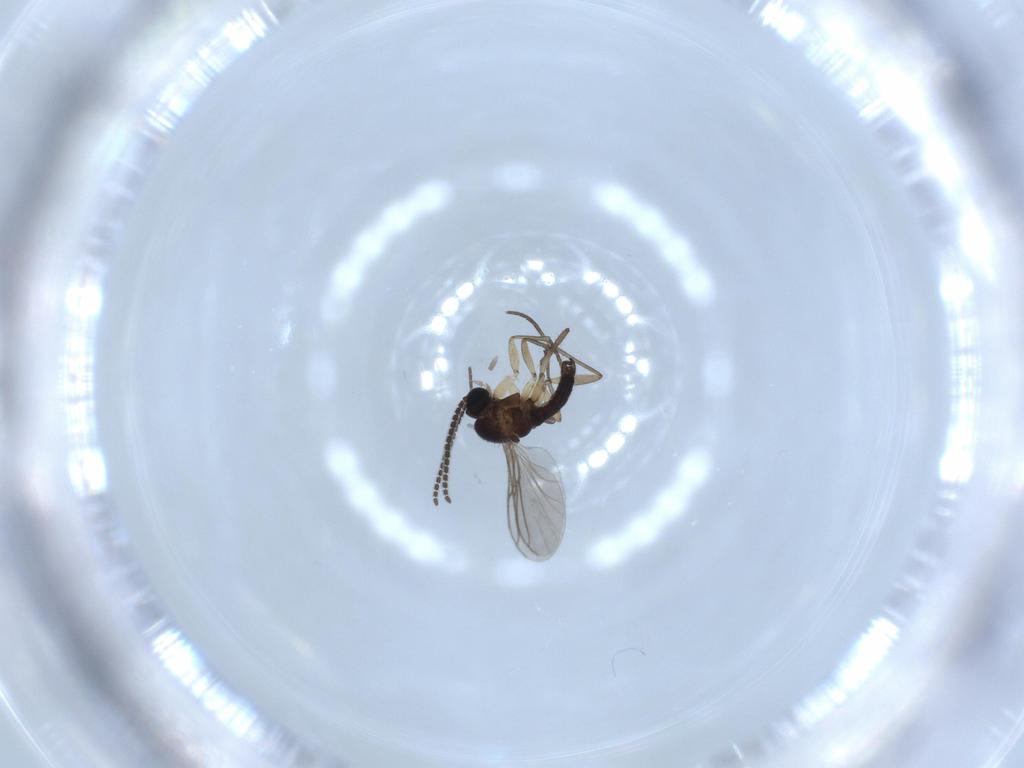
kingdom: Animalia
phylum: Arthropoda
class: Insecta
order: Diptera
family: Sciaridae
